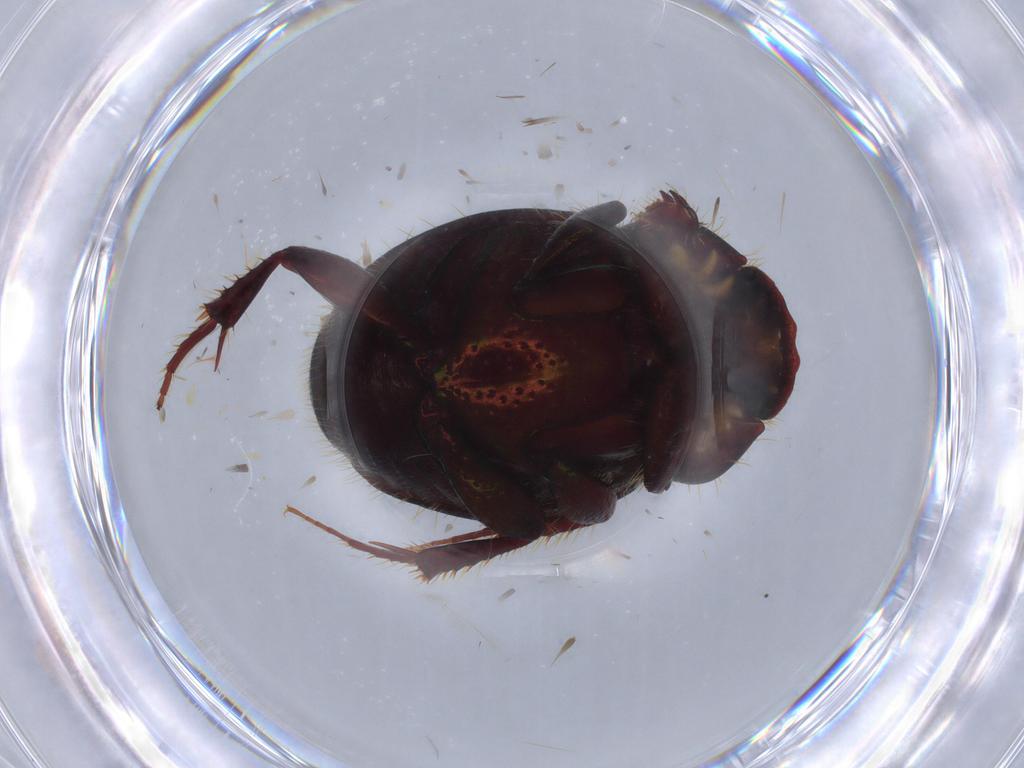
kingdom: Animalia
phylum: Arthropoda
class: Insecta
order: Coleoptera
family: Scarabaeidae
